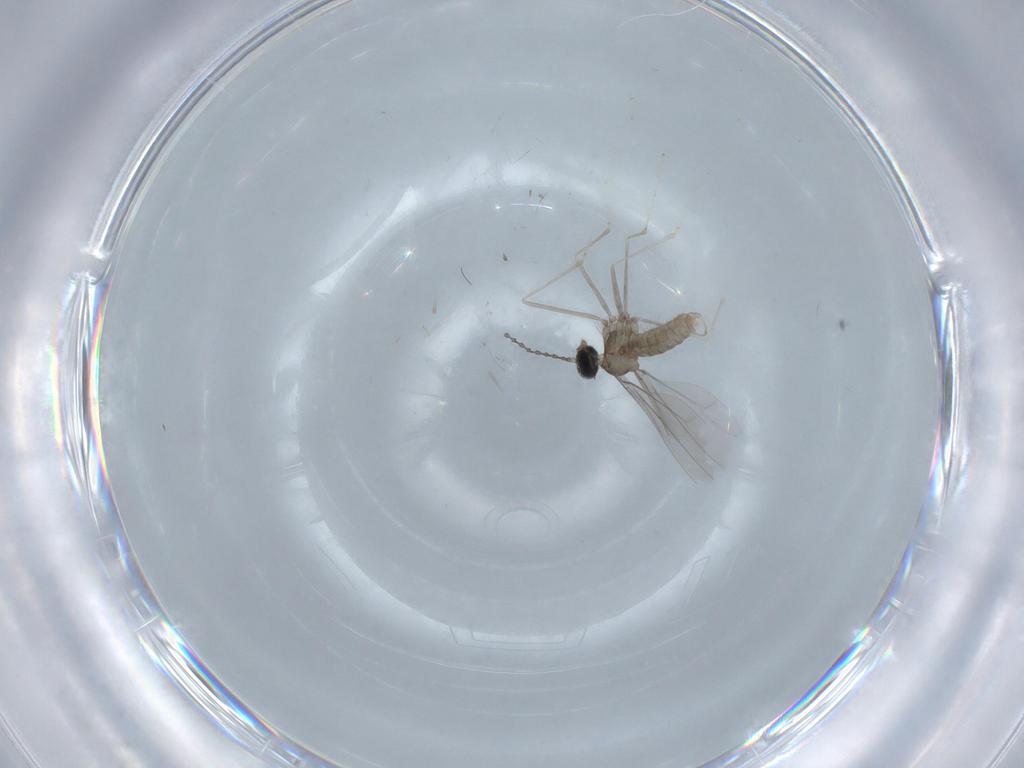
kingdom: Animalia
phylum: Arthropoda
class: Insecta
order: Diptera
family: Cecidomyiidae
